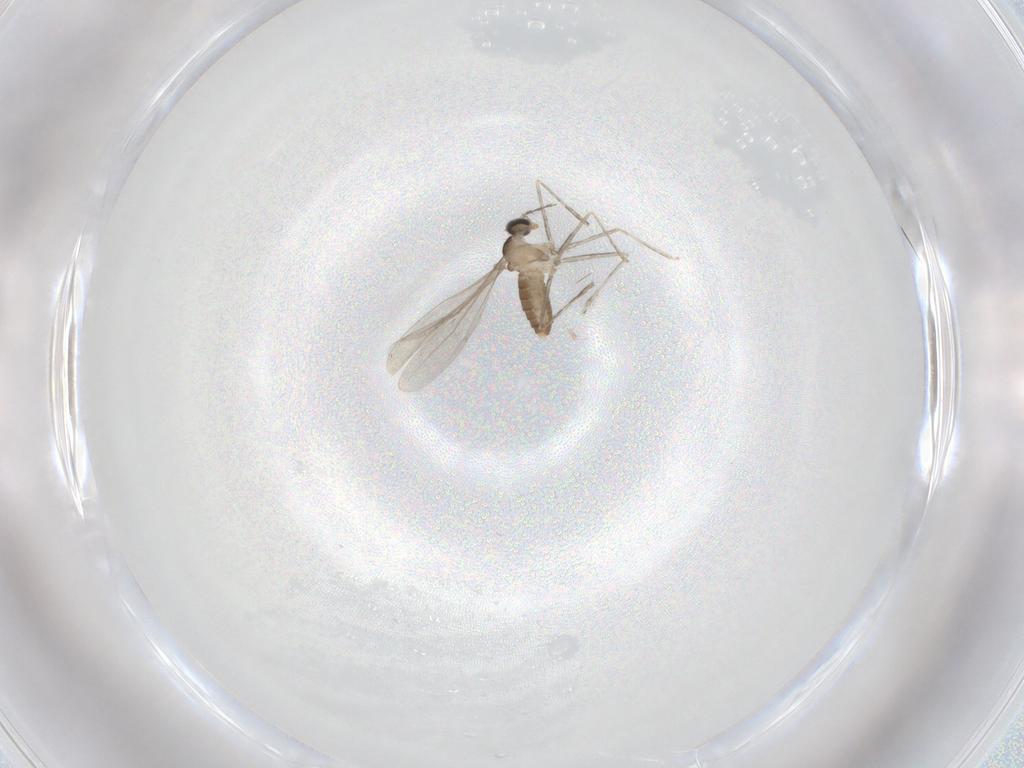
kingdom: Animalia
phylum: Arthropoda
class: Insecta
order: Diptera
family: Cecidomyiidae
